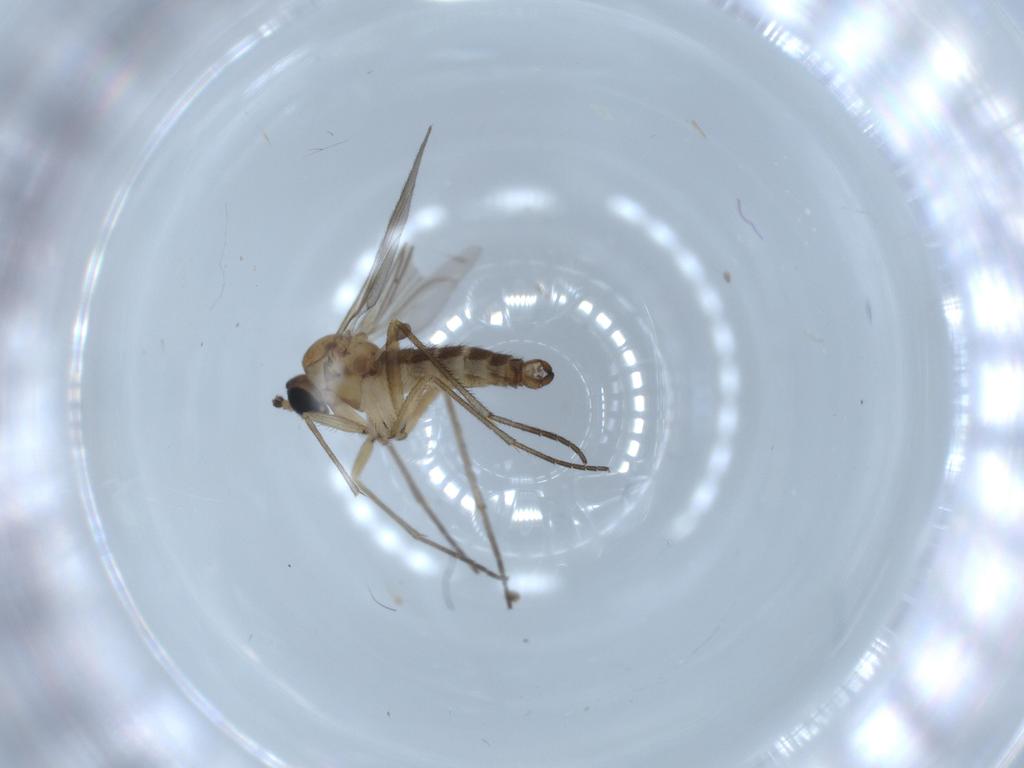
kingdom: Animalia
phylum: Arthropoda
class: Insecta
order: Diptera
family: Sciaridae
